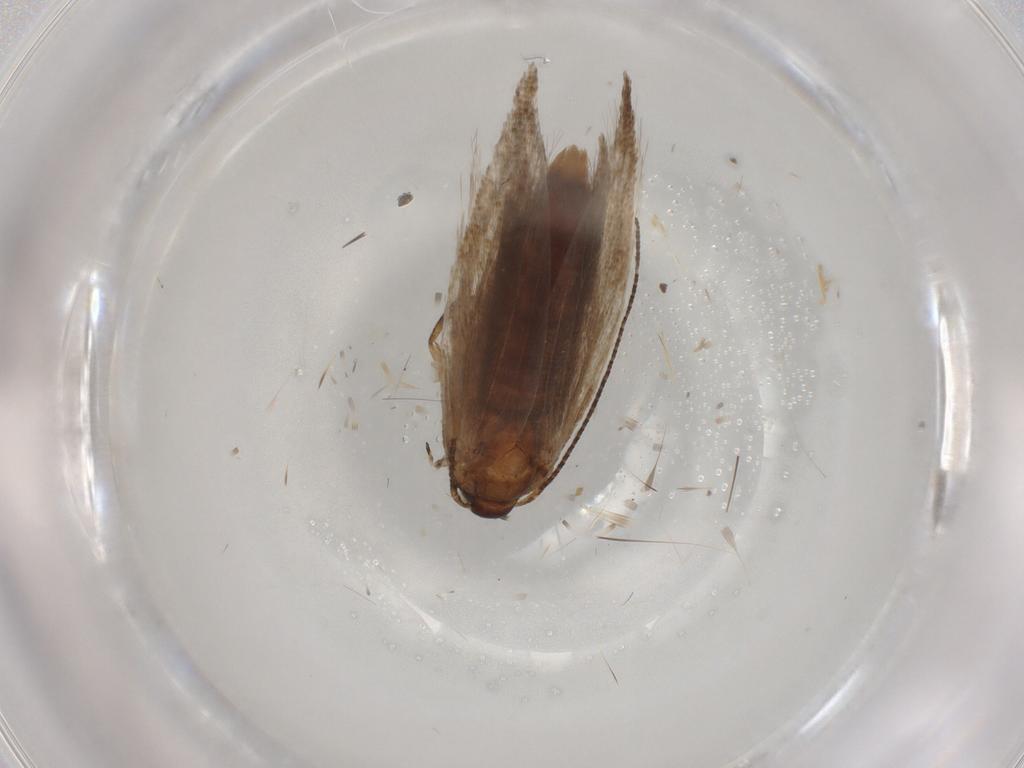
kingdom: Animalia
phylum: Arthropoda
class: Insecta
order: Lepidoptera
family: Gelechiidae
